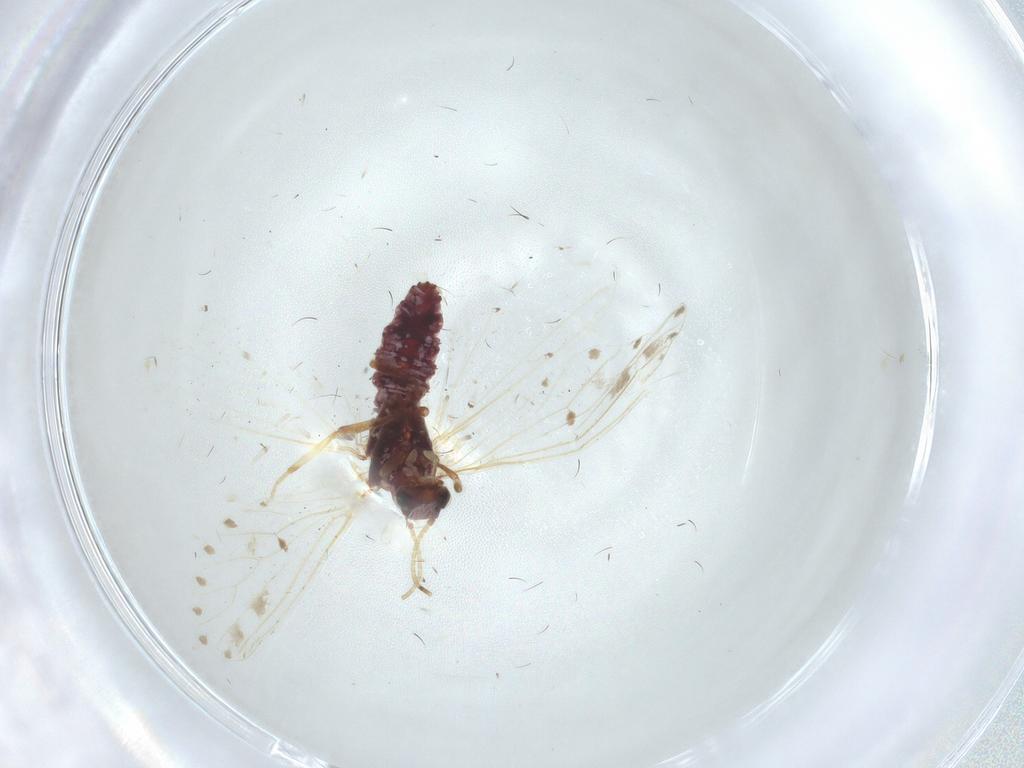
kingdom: Animalia
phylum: Arthropoda
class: Insecta
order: Neuroptera
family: Coniopterygidae
